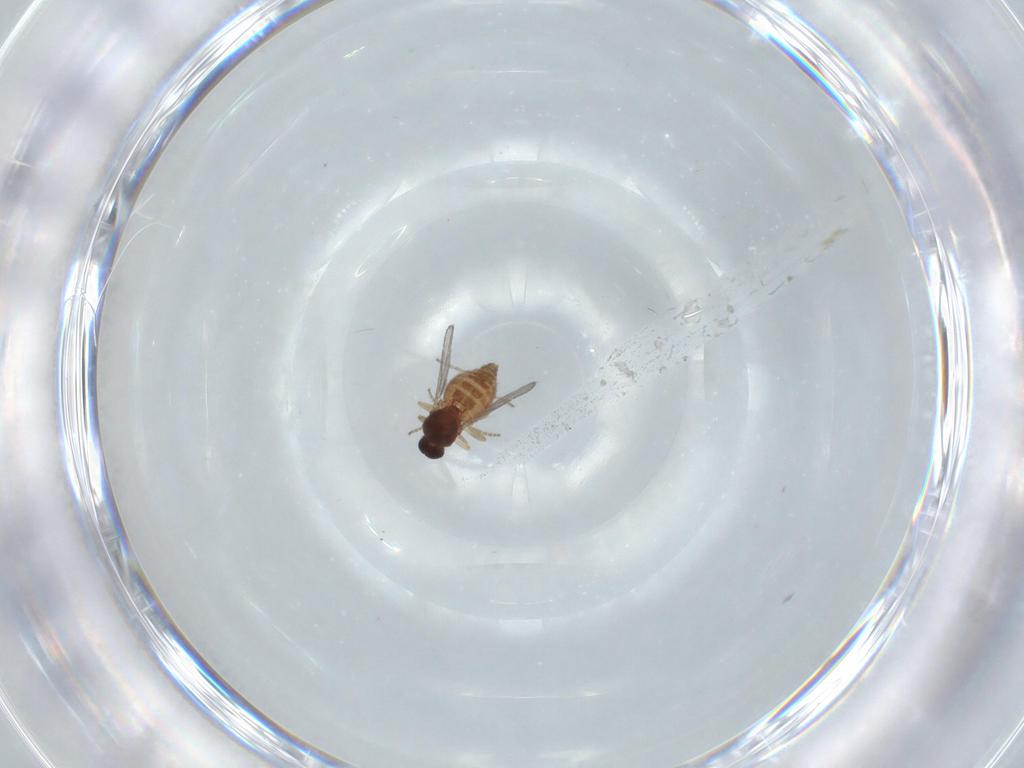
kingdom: Animalia
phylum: Arthropoda
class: Insecta
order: Diptera
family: Ceratopogonidae
